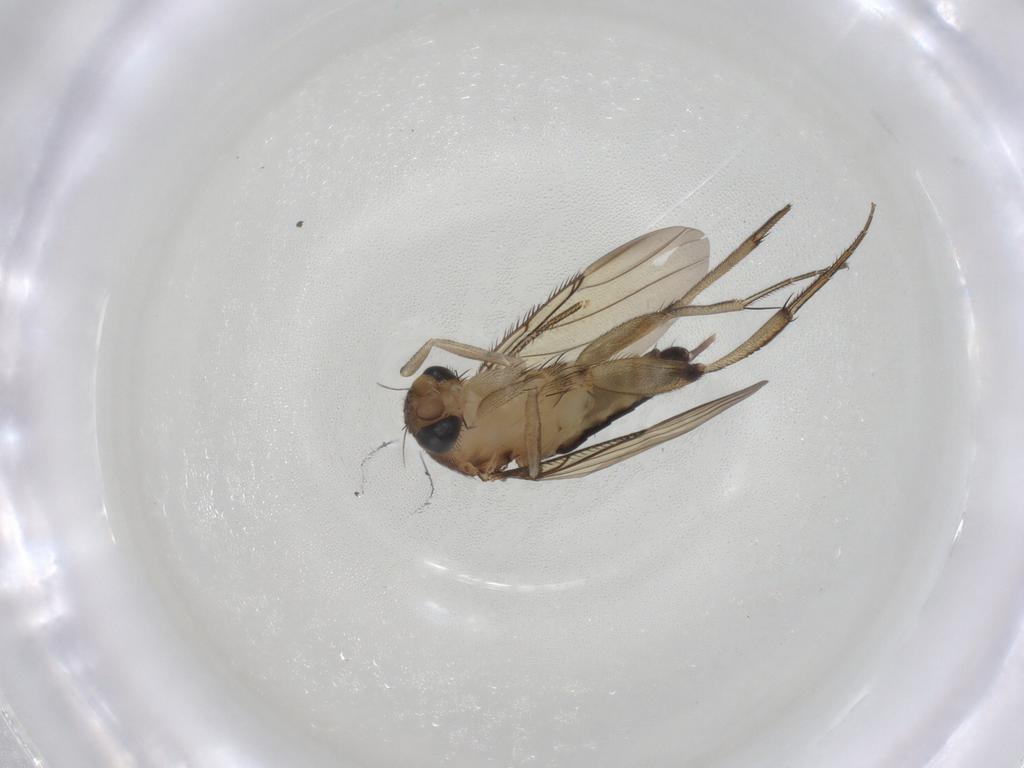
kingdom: Animalia
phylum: Arthropoda
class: Insecta
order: Diptera
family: Phoridae
